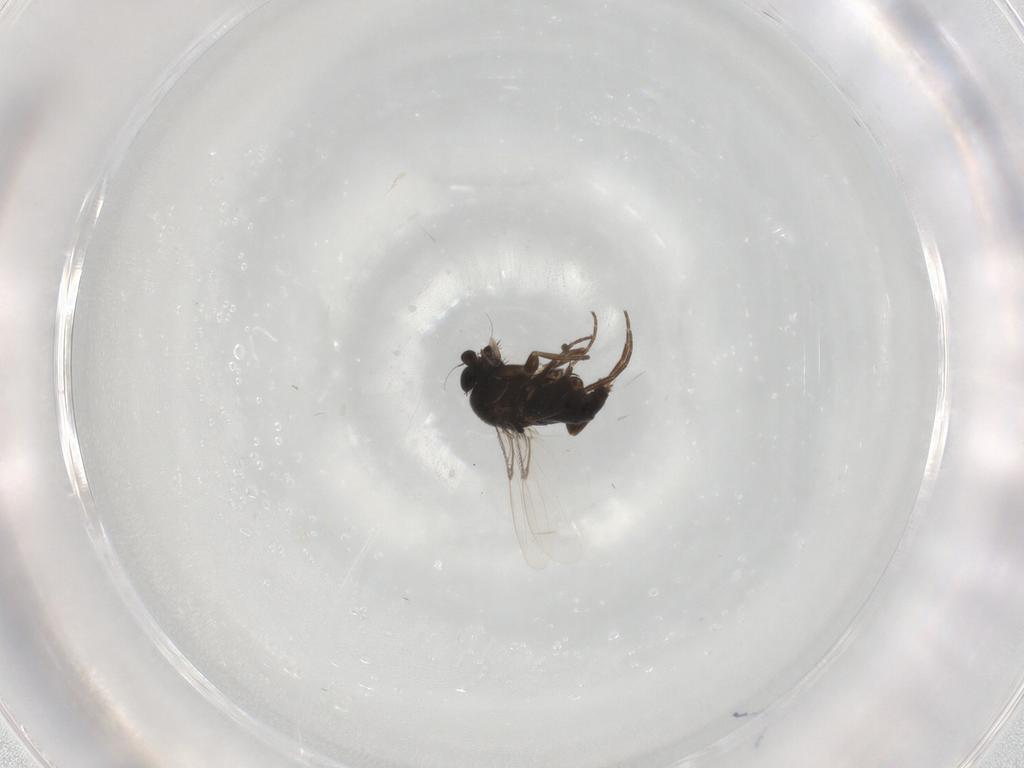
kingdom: Animalia
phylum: Arthropoda
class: Insecta
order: Diptera
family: Phoridae
